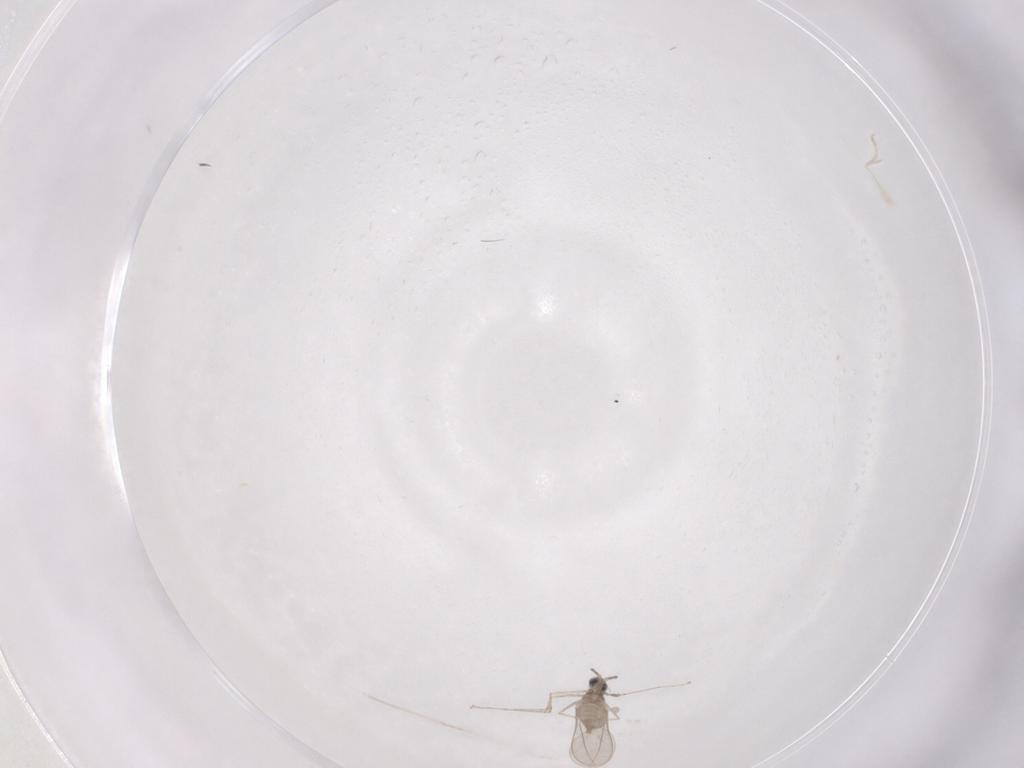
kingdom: Animalia
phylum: Arthropoda
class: Insecta
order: Diptera
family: Cecidomyiidae
